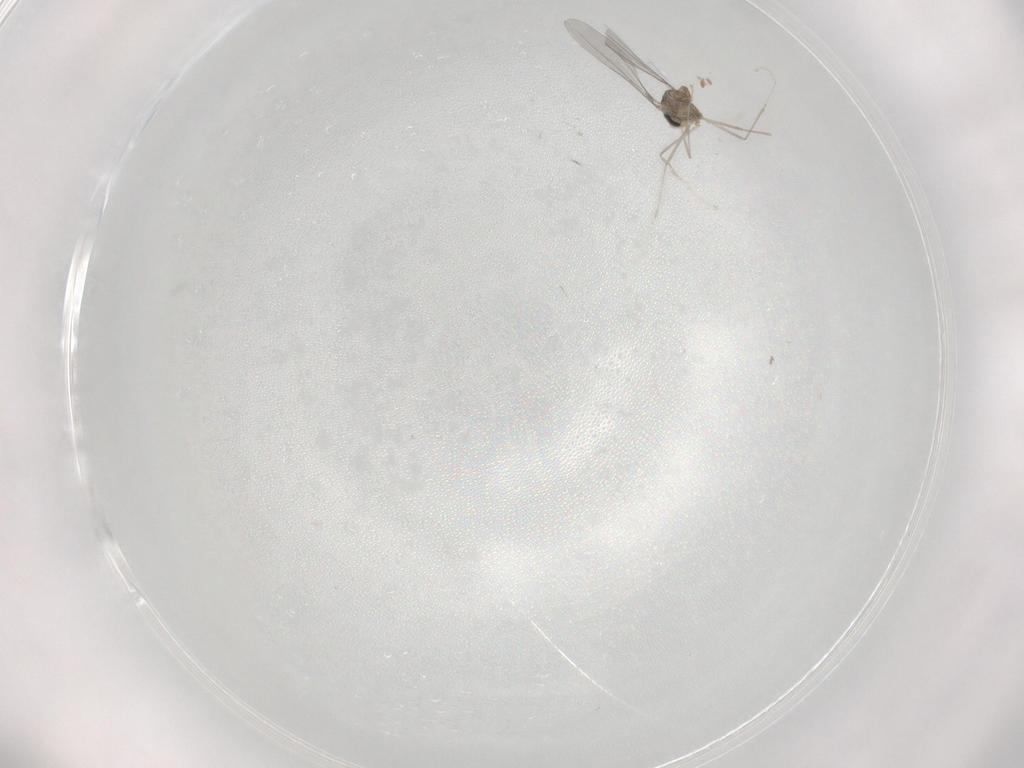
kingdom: Animalia
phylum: Arthropoda
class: Insecta
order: Diptera
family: Cecidomyiidae
